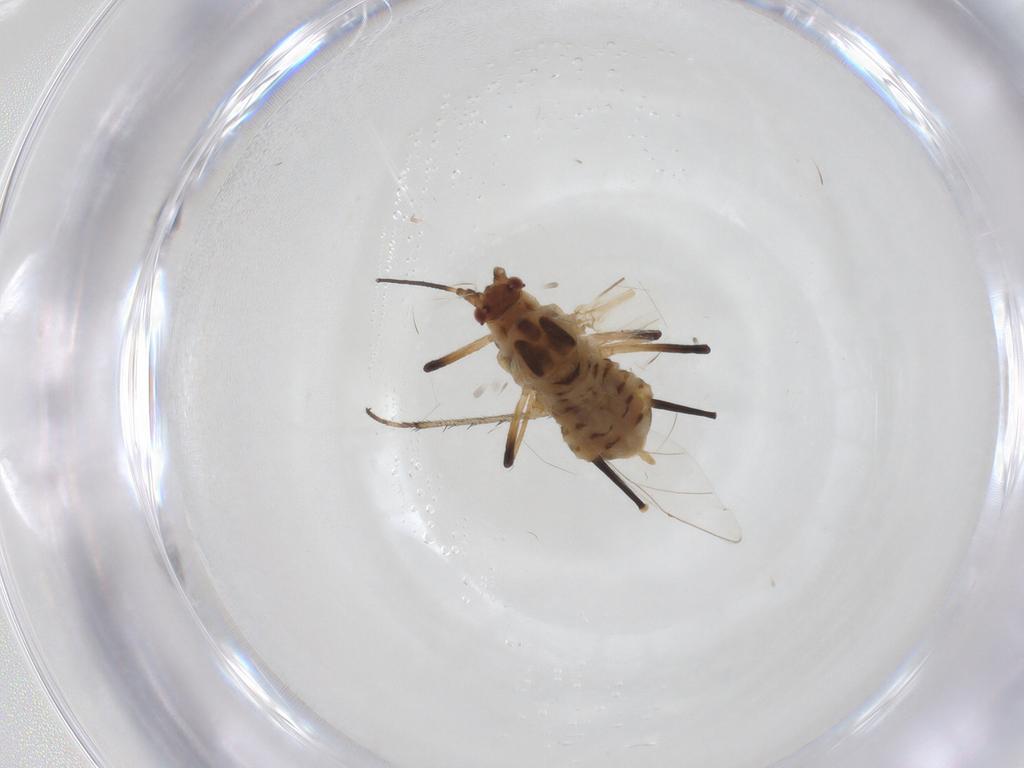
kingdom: Animalia
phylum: Arthropoda
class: Insecta
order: Hemiptera
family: Aphididae
